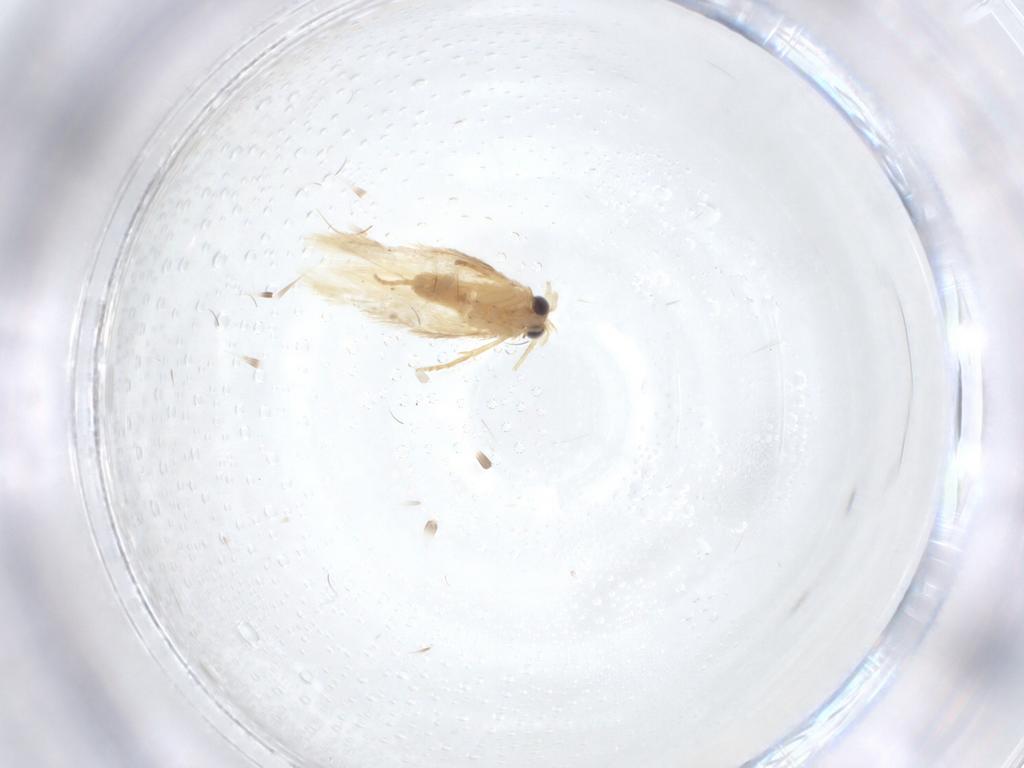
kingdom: Animalia
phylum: Arthropoda
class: Insecta
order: Lepidoptera
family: Nepticulidae
